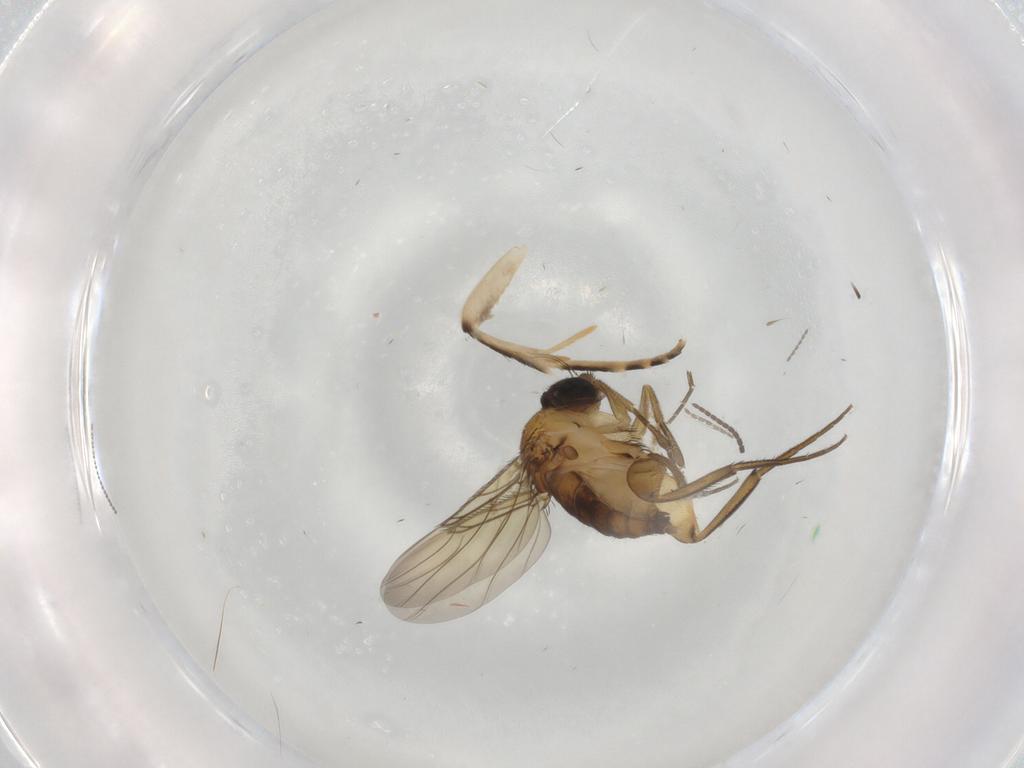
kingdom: Animalia
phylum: Arthropoda
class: Insecta
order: Diptera
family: Phoridae
